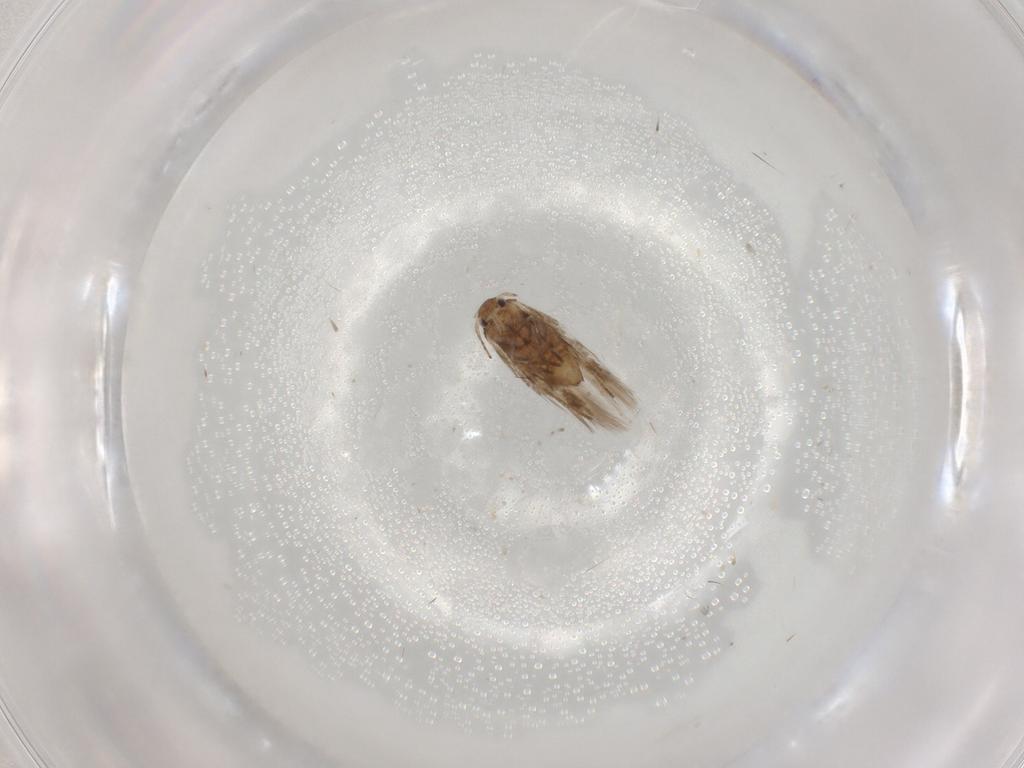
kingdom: Animalia
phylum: Arthropoda
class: Insecta
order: Lepidoptera
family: Nymphalidae
